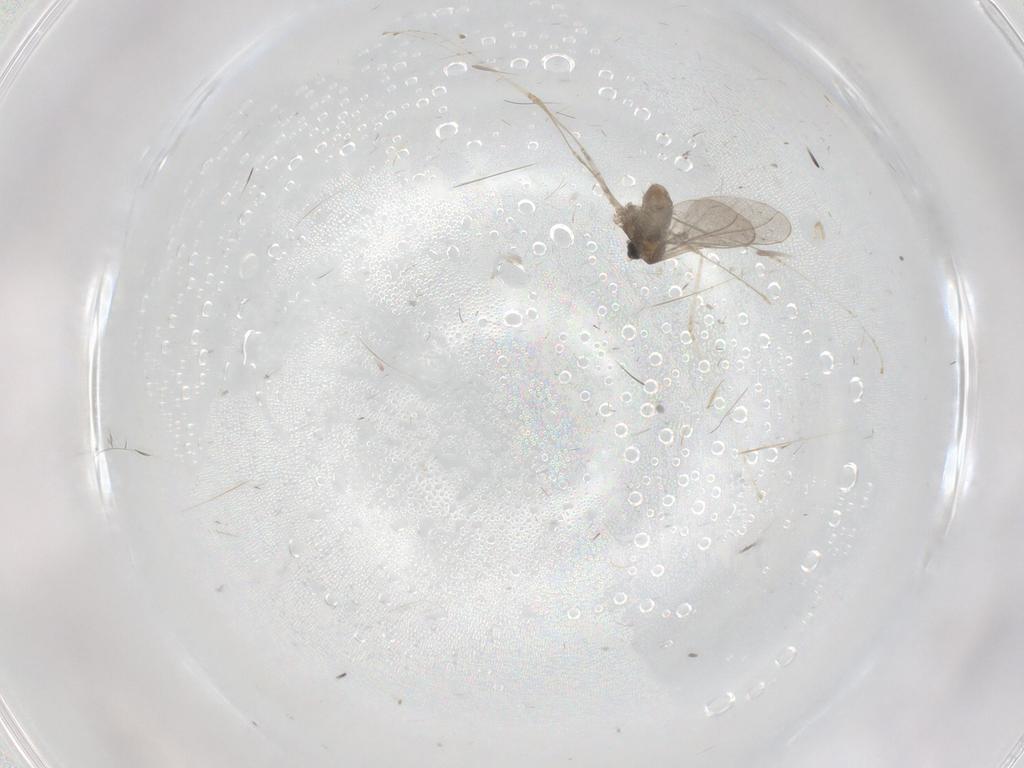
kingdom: Animalia
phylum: Arthropoda
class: Insecta
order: Diptera
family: Cecidomyiidae
